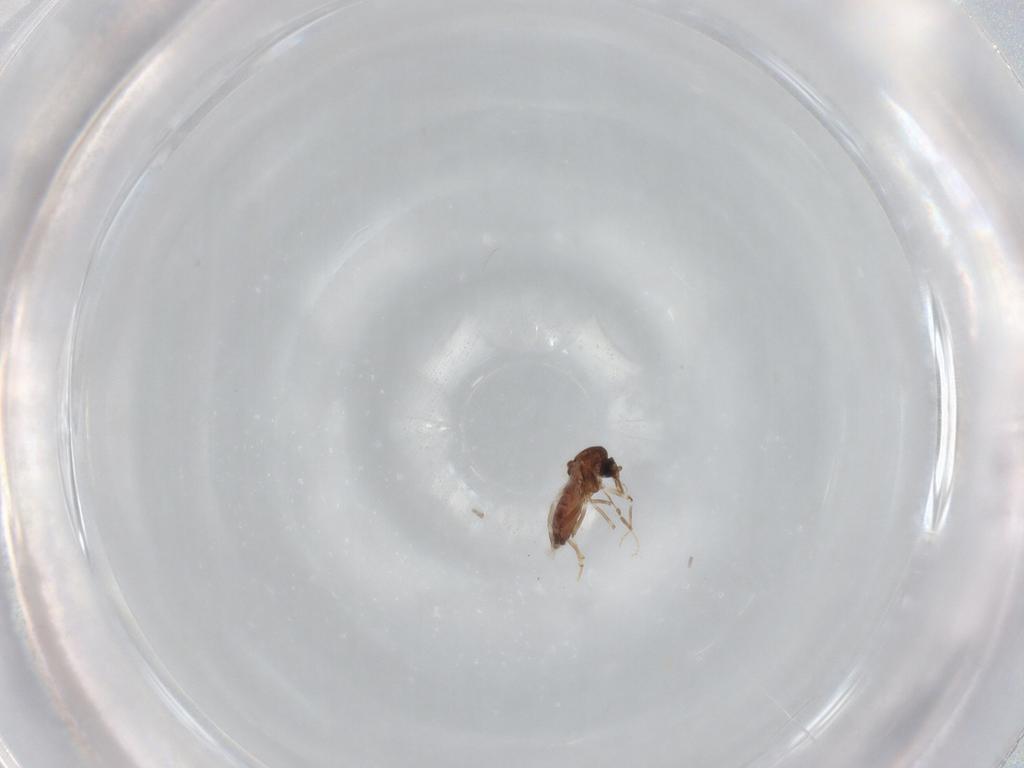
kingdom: Animalia
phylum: Arthropoda
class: Insecta
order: Diptera
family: Ceratopogonidae
